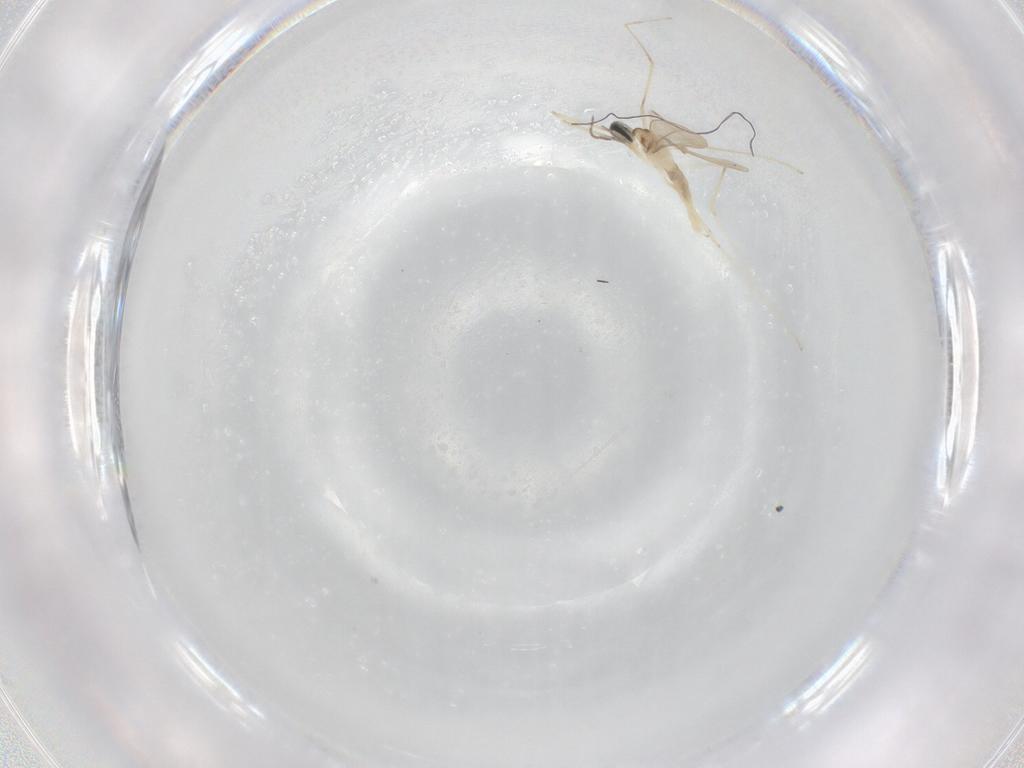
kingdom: Animalia
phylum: Arthropoda
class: Insecta
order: Diptera
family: Cecidomyiidae
